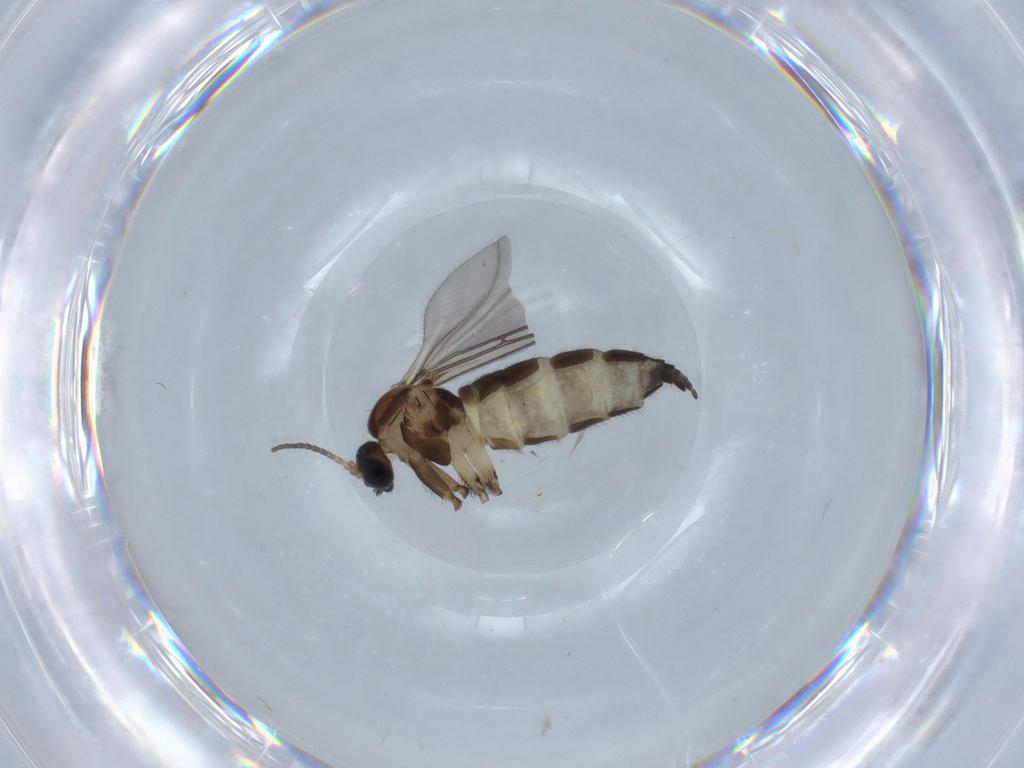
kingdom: Animalia
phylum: Arthropoda
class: Insecta
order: Diptera
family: Sciaridae
